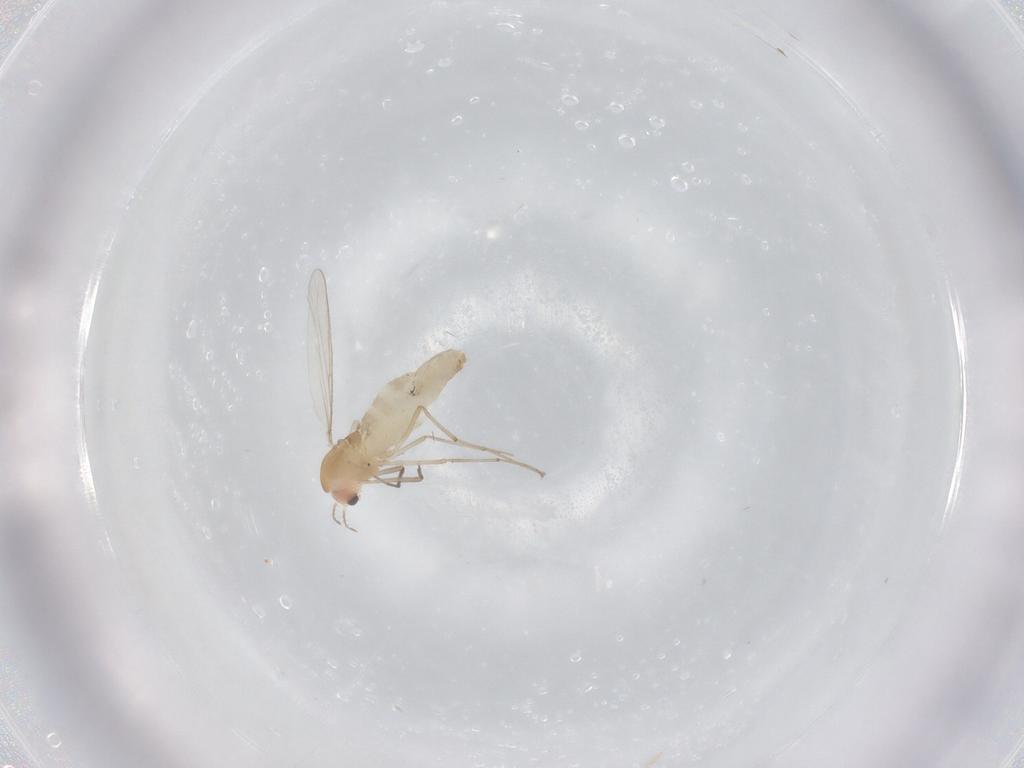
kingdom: Animalia
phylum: Arthropoda
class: Insecta
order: Diptera
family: Chironomidae
